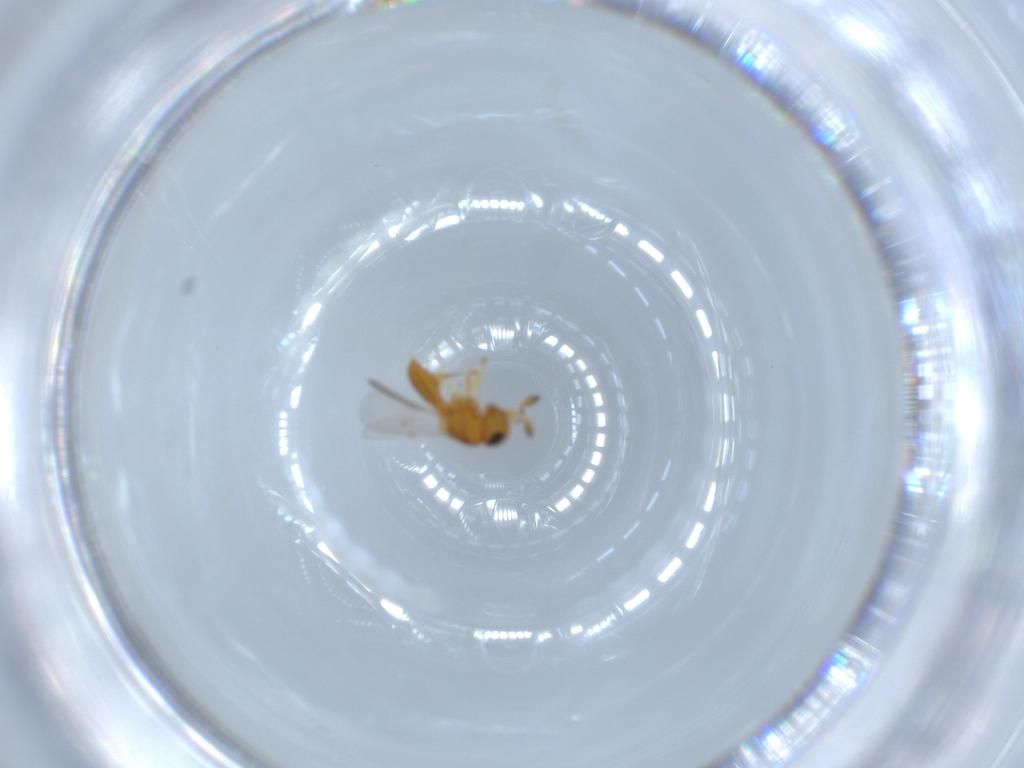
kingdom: Animalia
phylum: Arthropoda
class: Insecta
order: Hymenoptera
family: Scelionidae
